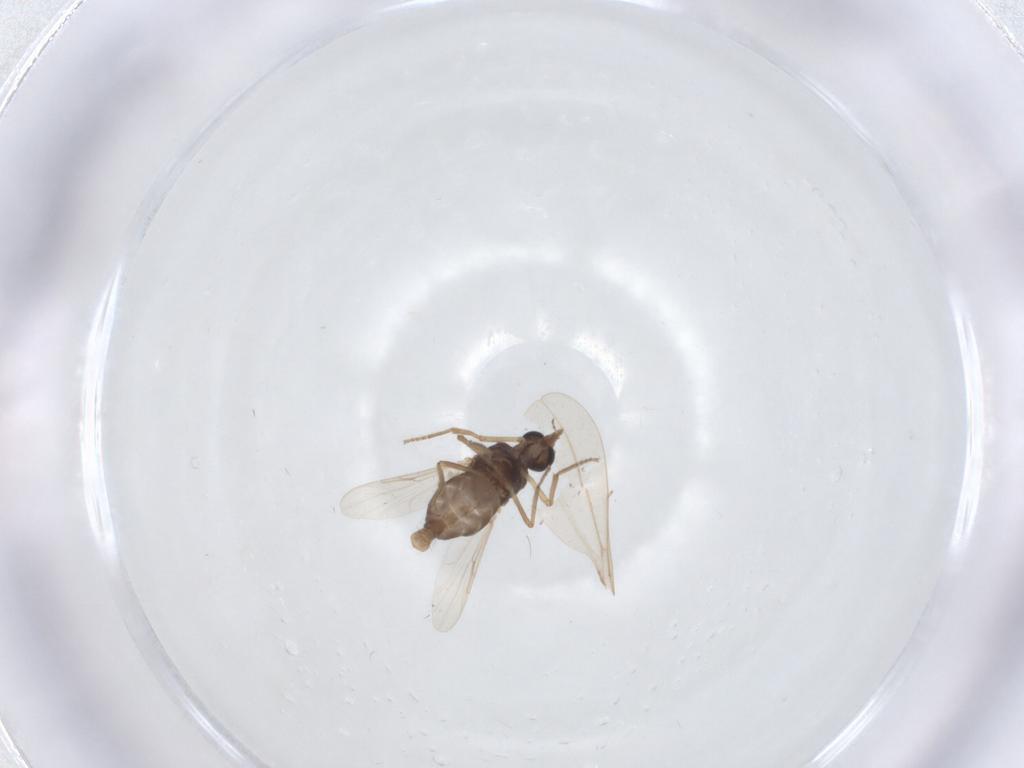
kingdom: Animalia
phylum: Arthropoda
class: Insecta
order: Diptera
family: Ceratopogonidae
